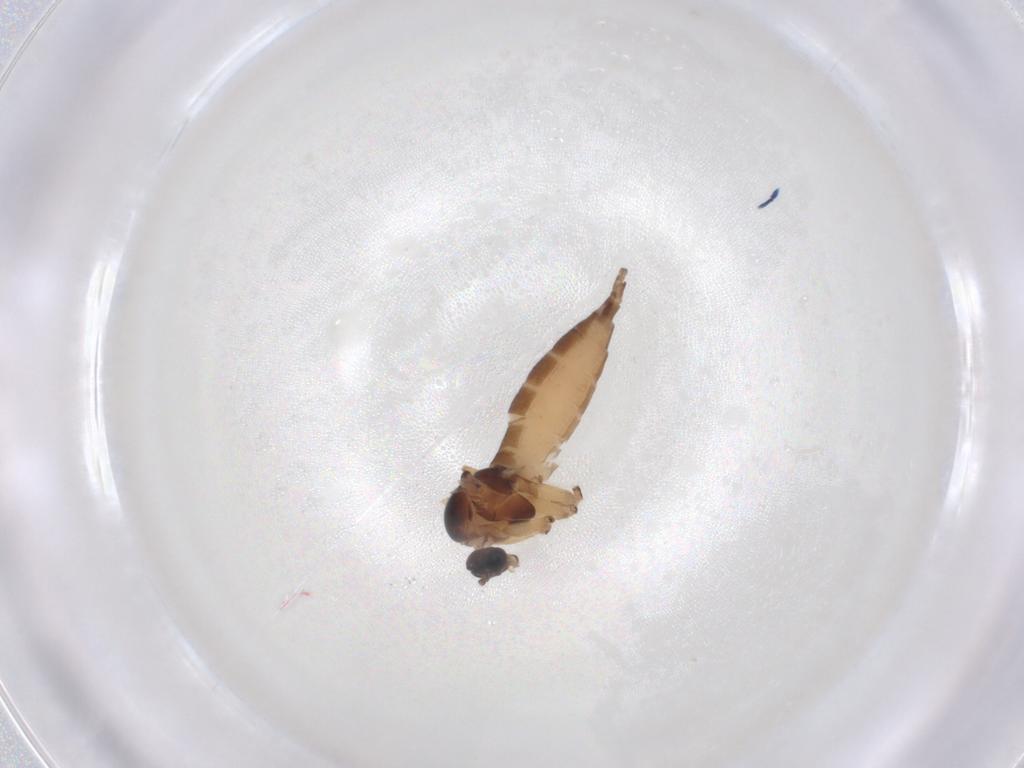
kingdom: Animalia
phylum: Arthropoda
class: Insecta
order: Diptera
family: Sciaridae
